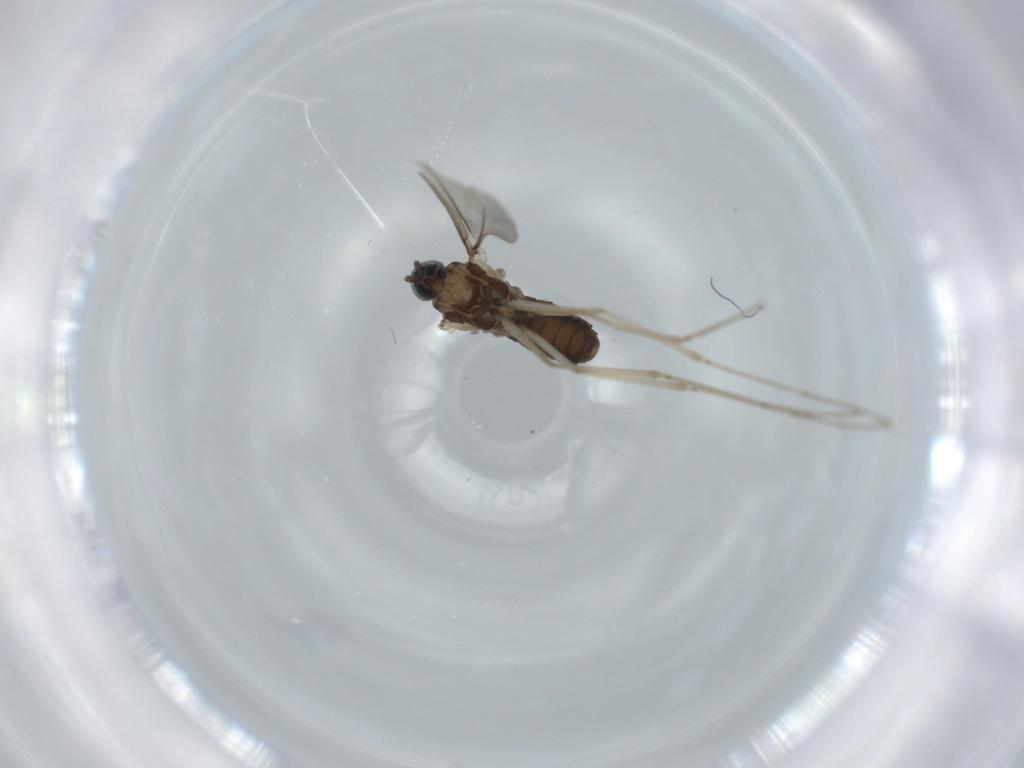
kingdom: Animalia
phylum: Arthropoda
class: Insecta
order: Diptera
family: Cecidomyiidae
